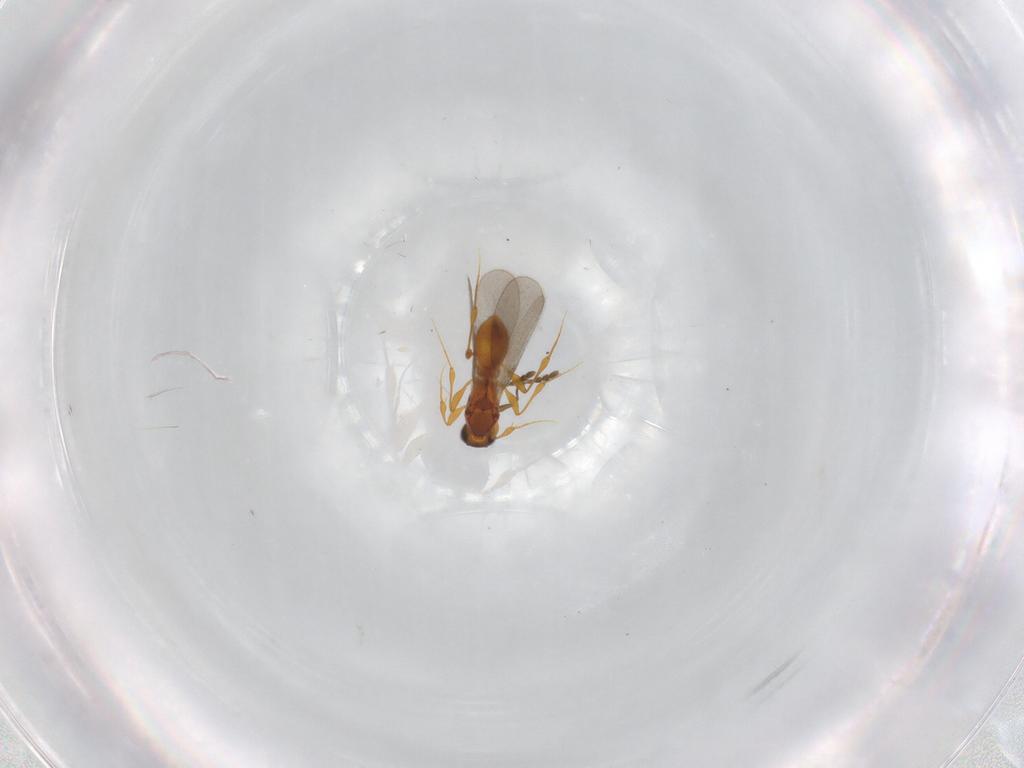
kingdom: Animalia
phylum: Arthropoda
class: Insecta
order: Hymenoptera
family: Platygastridae
